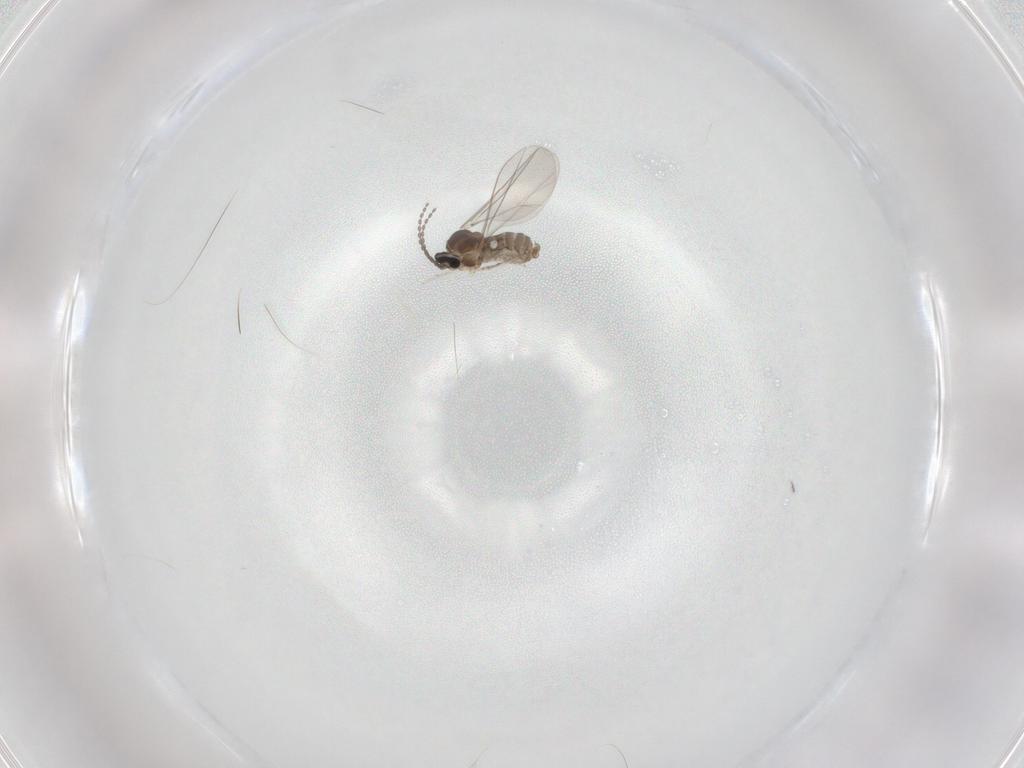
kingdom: Animalia
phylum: Arthropoda
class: Insecta
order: Diptera
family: Cecidomyiidae
